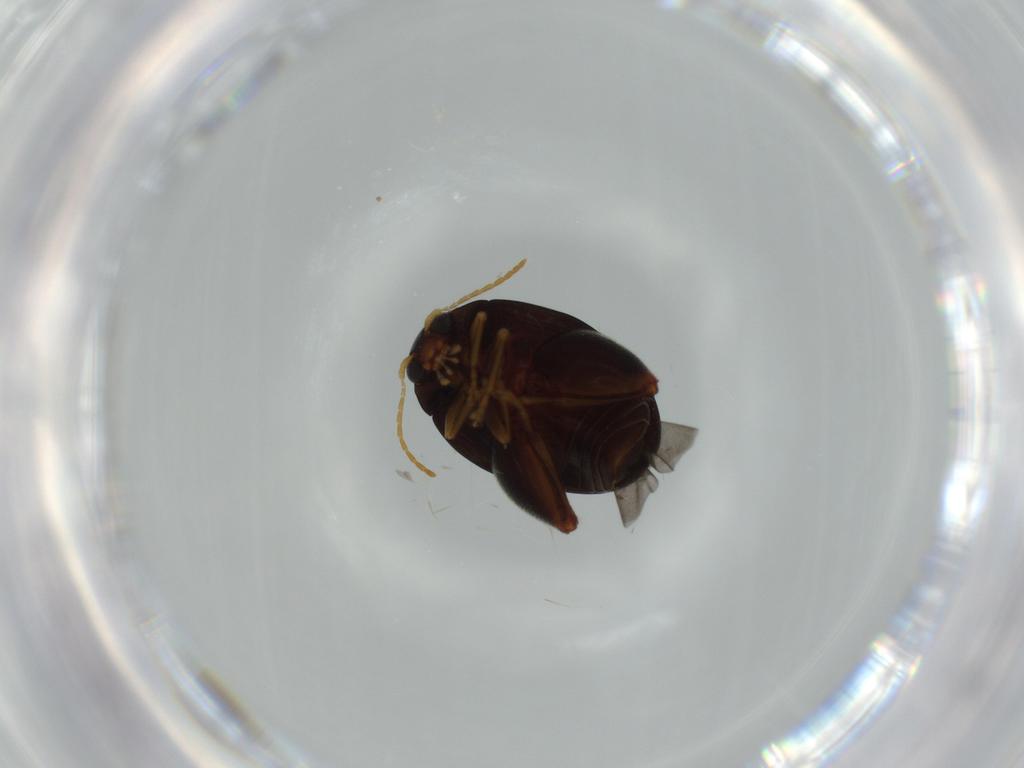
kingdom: Animalia
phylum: Arthropoda
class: Insecta
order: Coleoptera
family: Chrysomelidae
